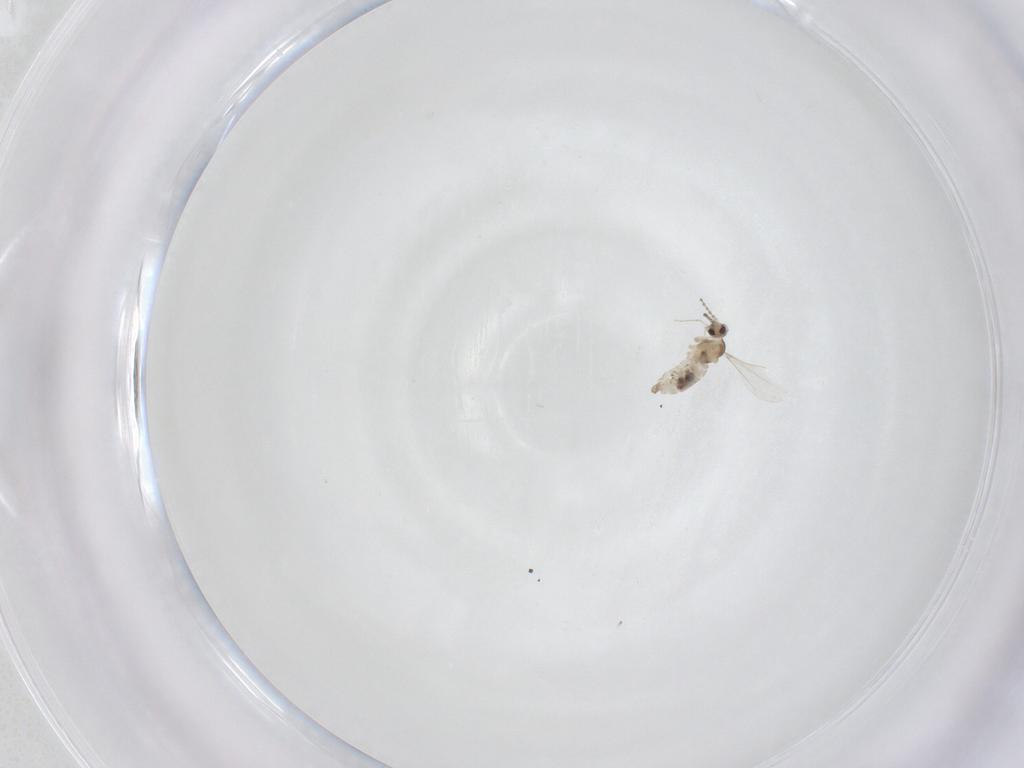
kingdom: Animalia
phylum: Arthropoda
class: Insecta
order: Diptera
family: Cecidomyiidae
